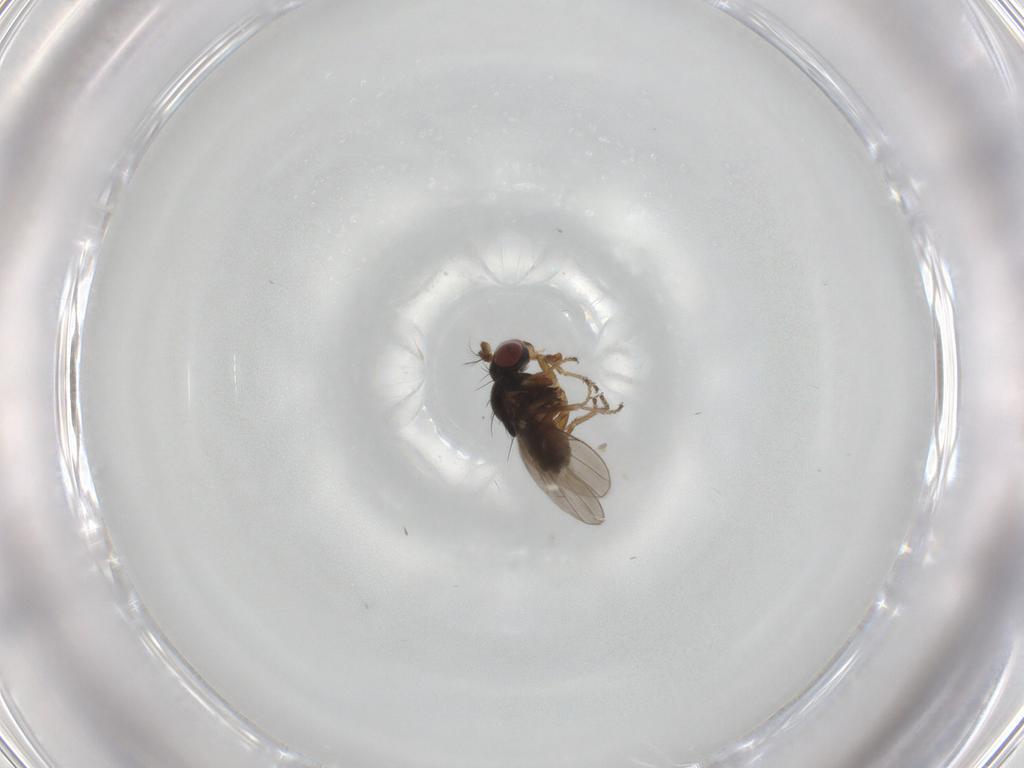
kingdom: Animalia
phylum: Arthropoda
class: Insecta
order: Diptera
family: Ephydridae
